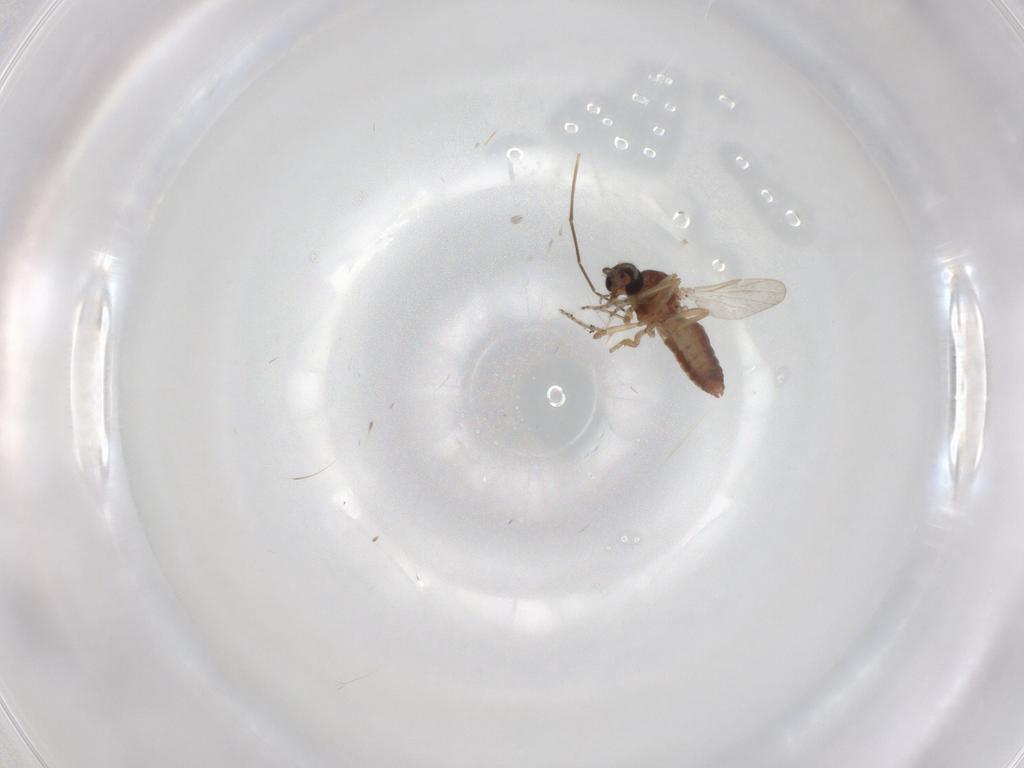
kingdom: Animalia
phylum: Arthropoda
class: Insecta
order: Diptera
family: Ceratopogonidae
